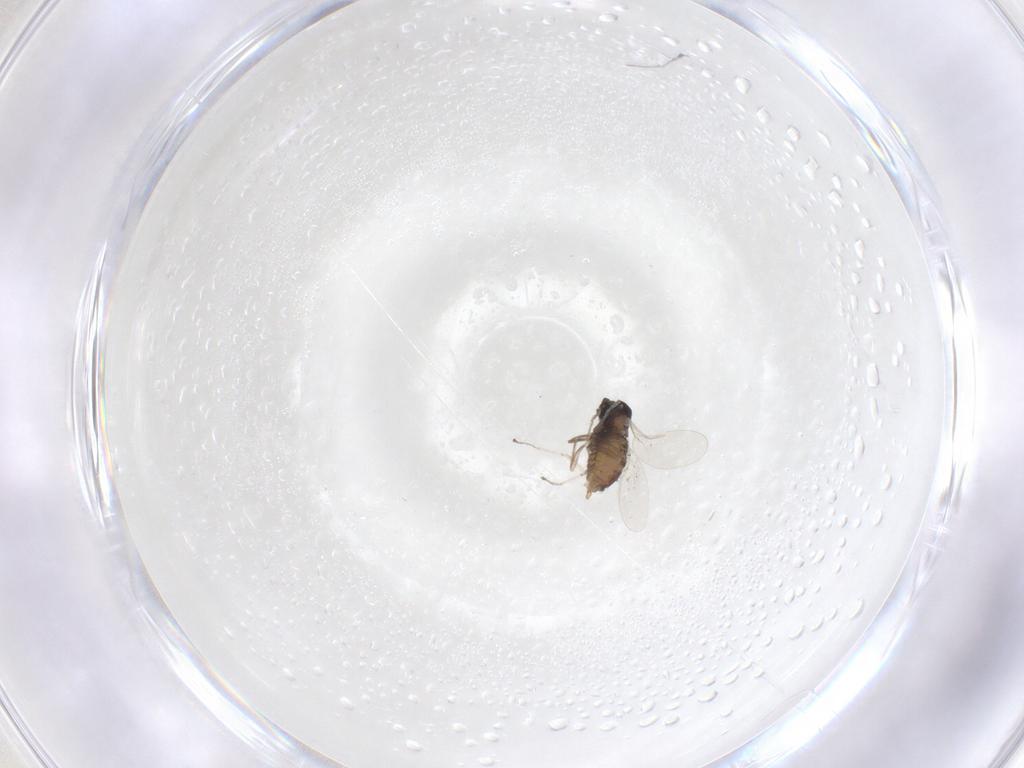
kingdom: Animalia
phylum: Arthropoda
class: Insecta
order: Diptera
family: Cecidomyiidae
